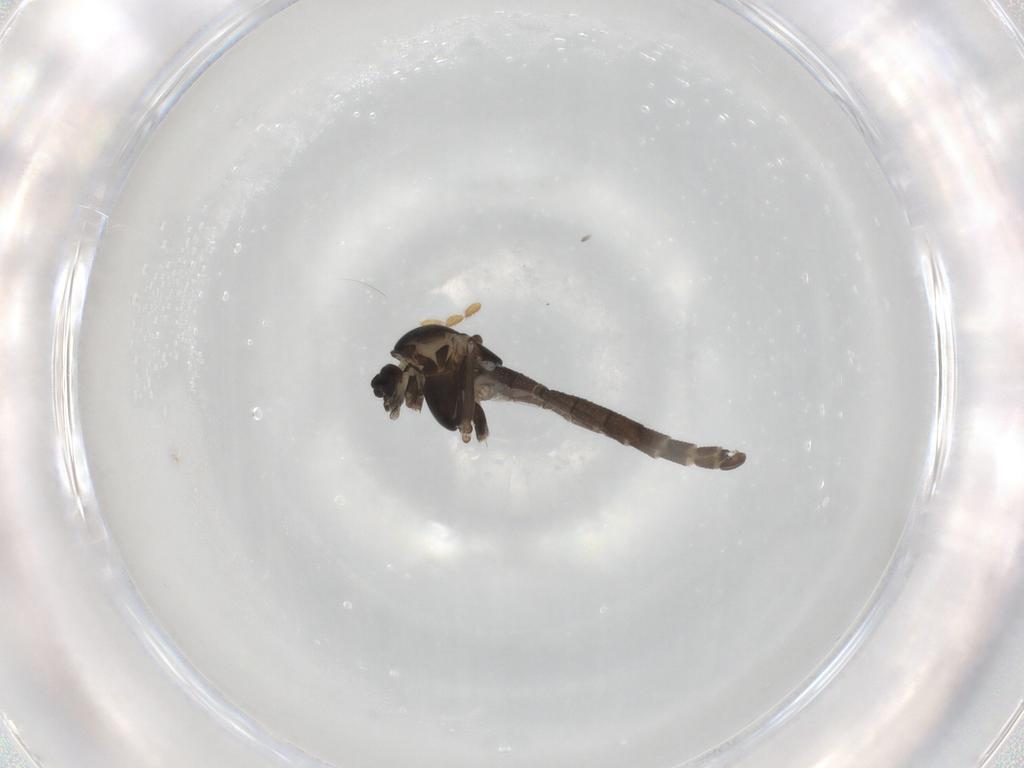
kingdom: Animalia
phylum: Arthropoda
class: Insecta
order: Diptera
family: Chironomidae
